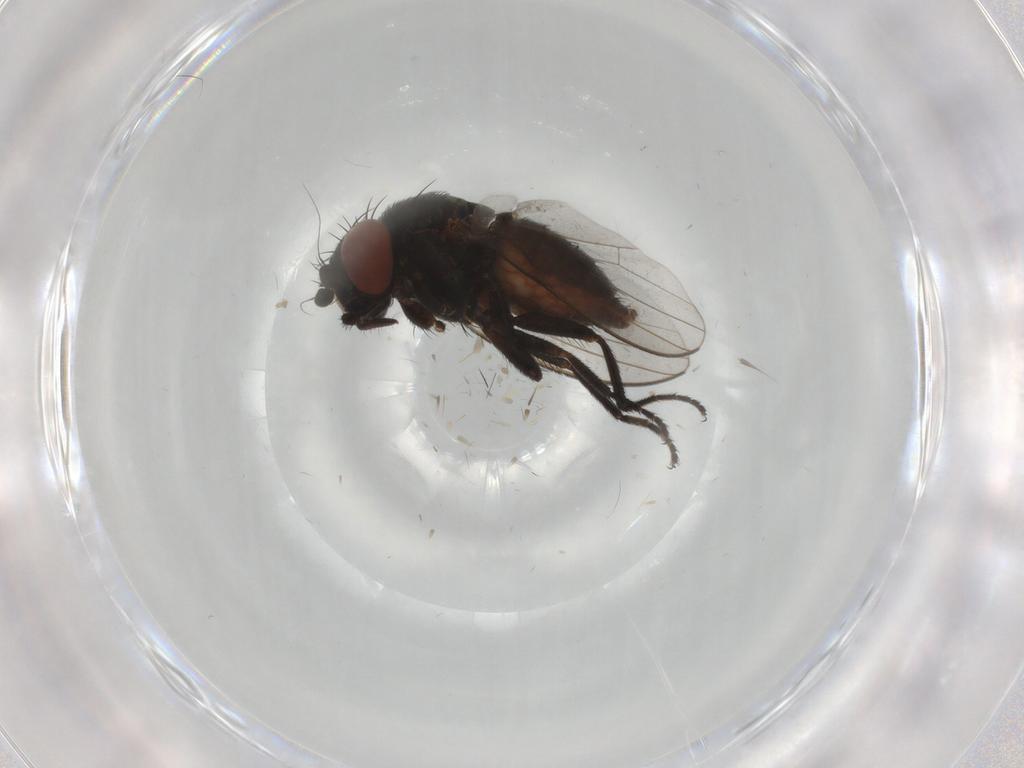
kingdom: Animalia
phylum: Arthropoda
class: Insecta
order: Diptera
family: Milichiidae
